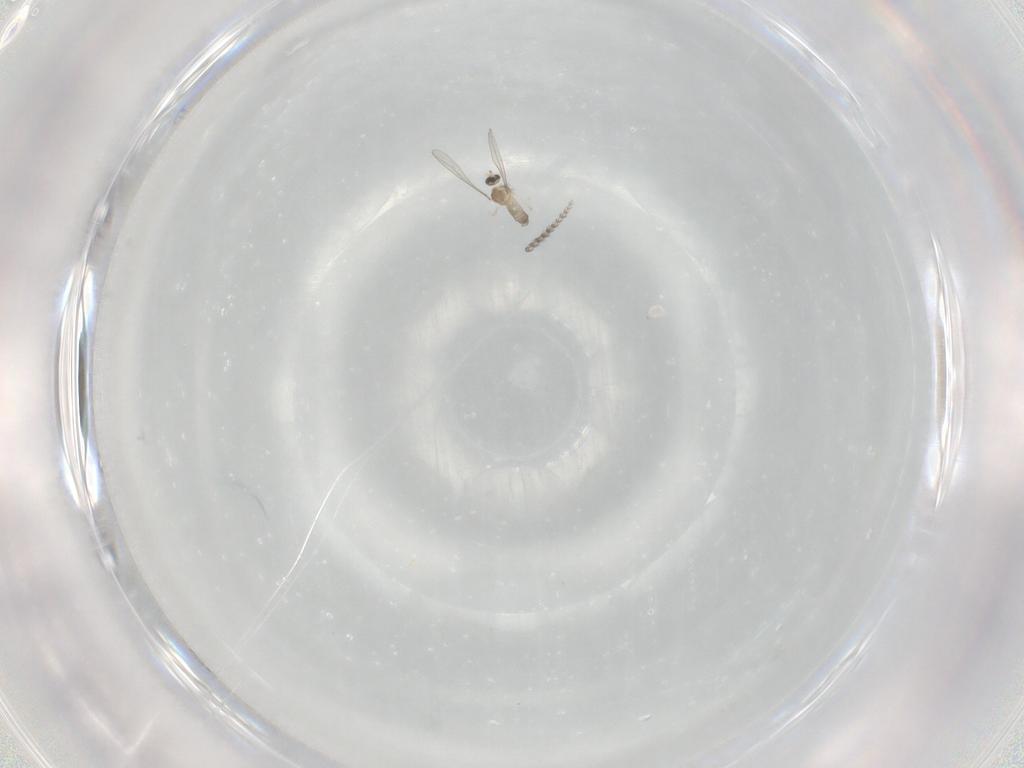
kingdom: Animalia
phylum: Arthropoda
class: Insecta
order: Diptera
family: Cecidomyiidae
